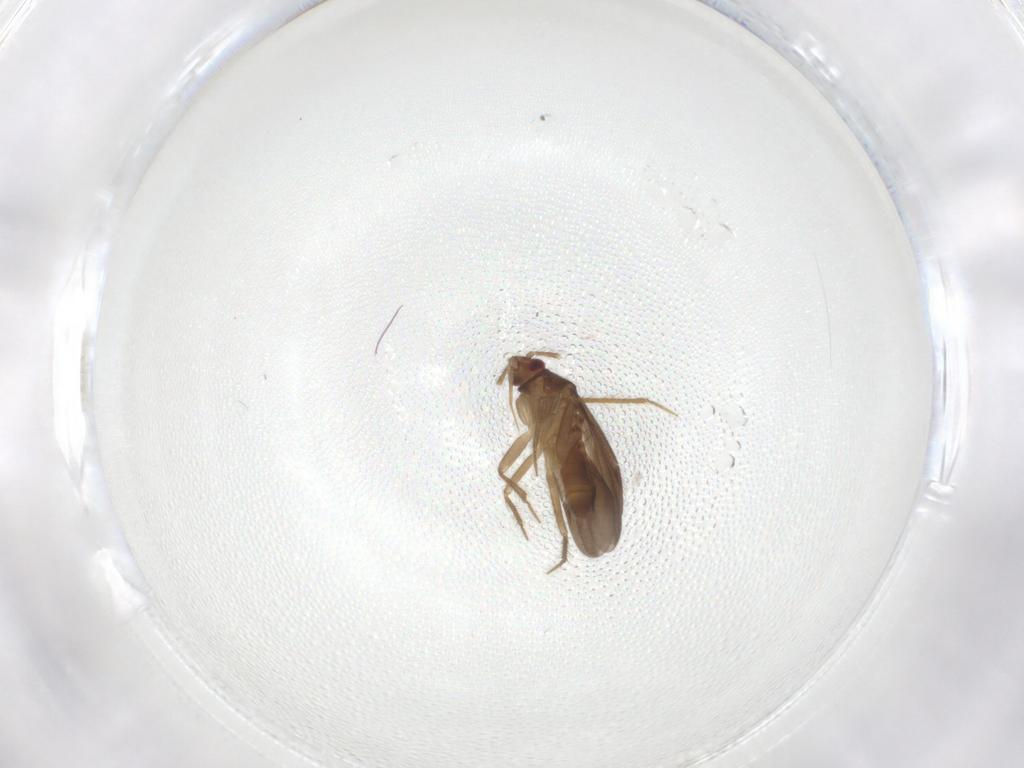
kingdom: Animalia
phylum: Arthropoda
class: Insecta
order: Hemiptera
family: Ceratocombidae
